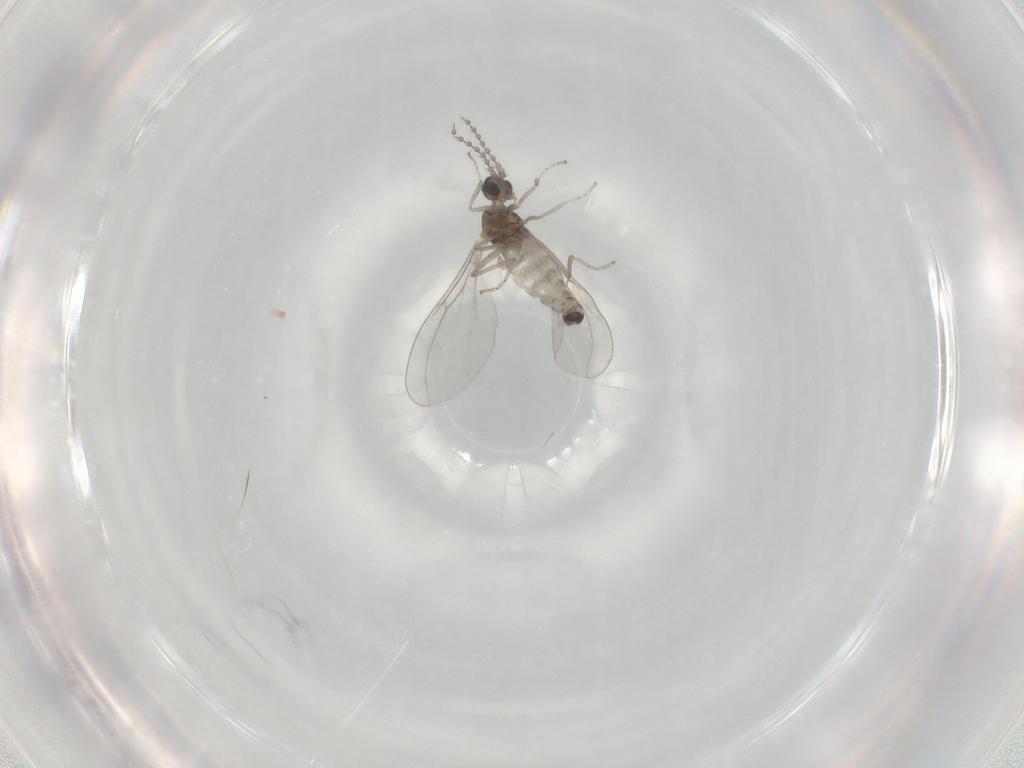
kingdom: Animalia
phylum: Arthropoda
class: Insecta
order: Diptera
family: Cecidomyiidae
